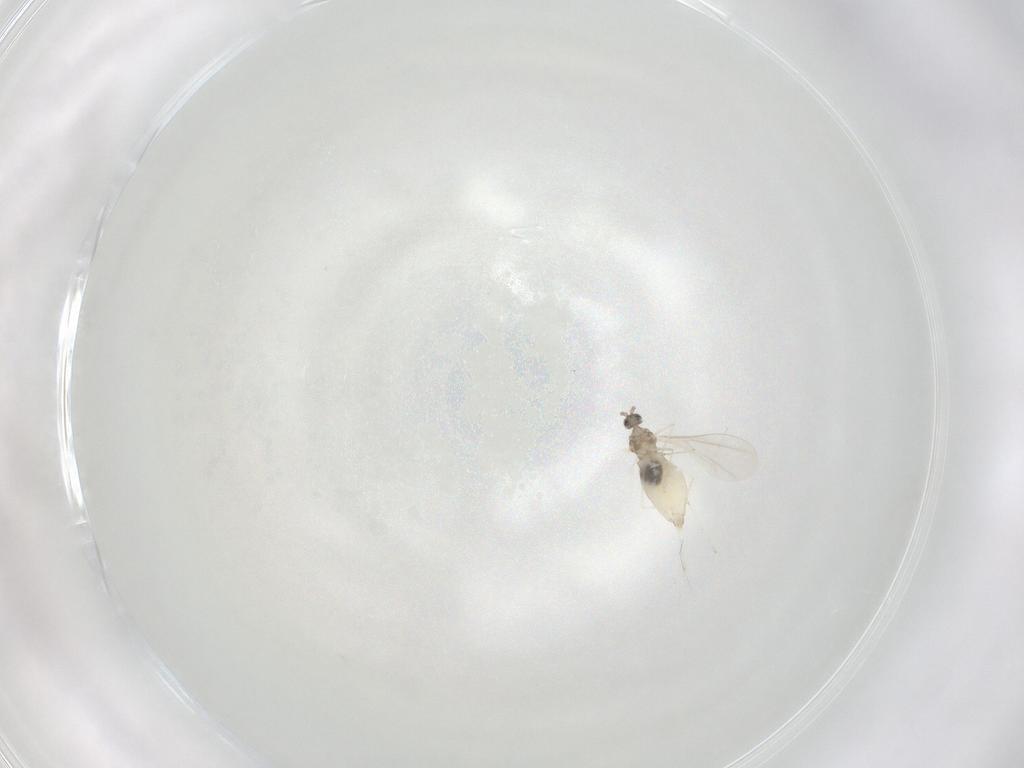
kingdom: Animalia
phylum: Arthropoda
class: Insecta
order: Diptera
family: Cecidomyiidae
